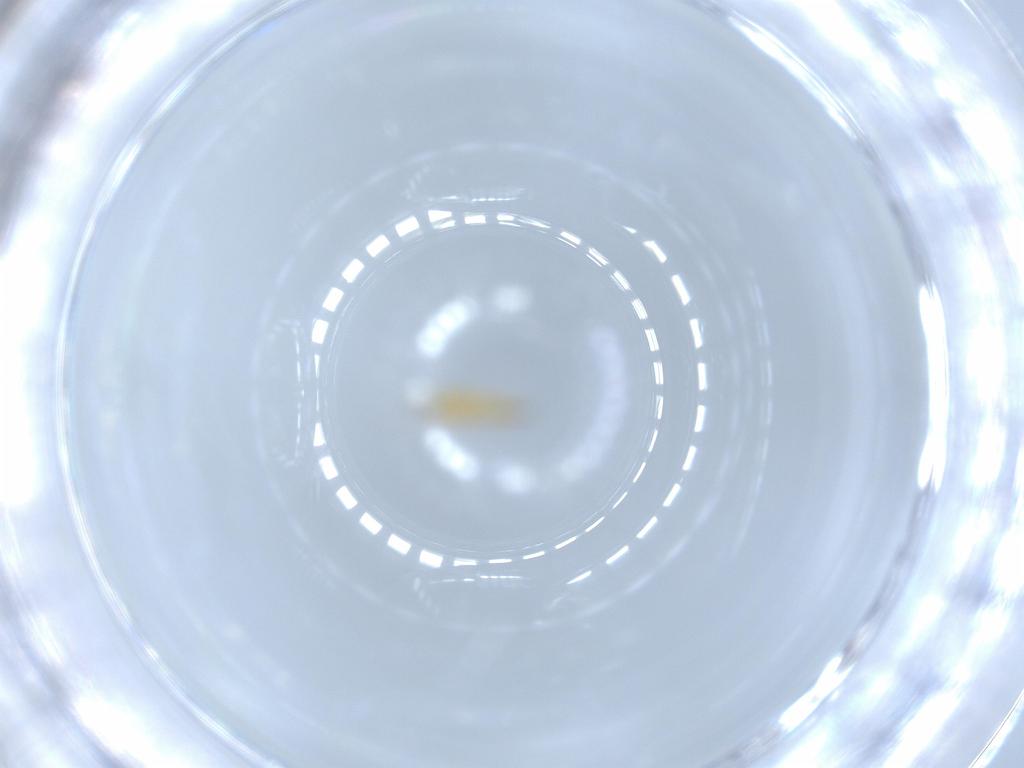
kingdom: Animalia
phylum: Arthropoda
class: Insecta
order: Thysanoptera
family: Thripidae
